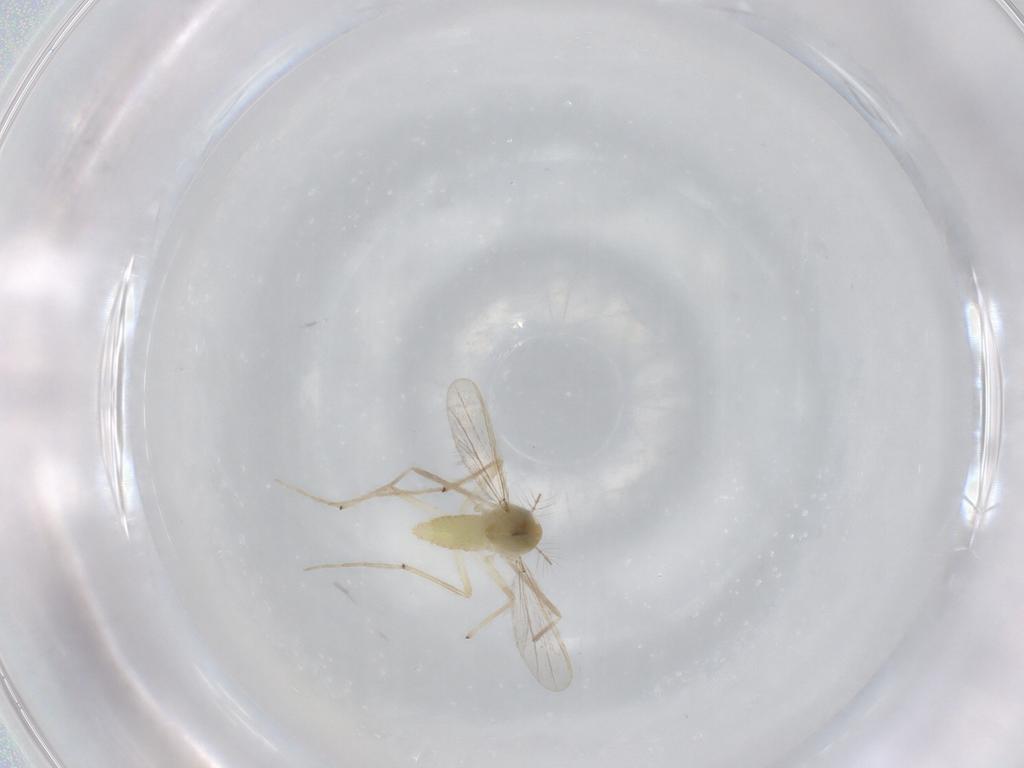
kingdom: Animalia
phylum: Arthropoda
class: Insecta
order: Diptera
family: Chironomidae
